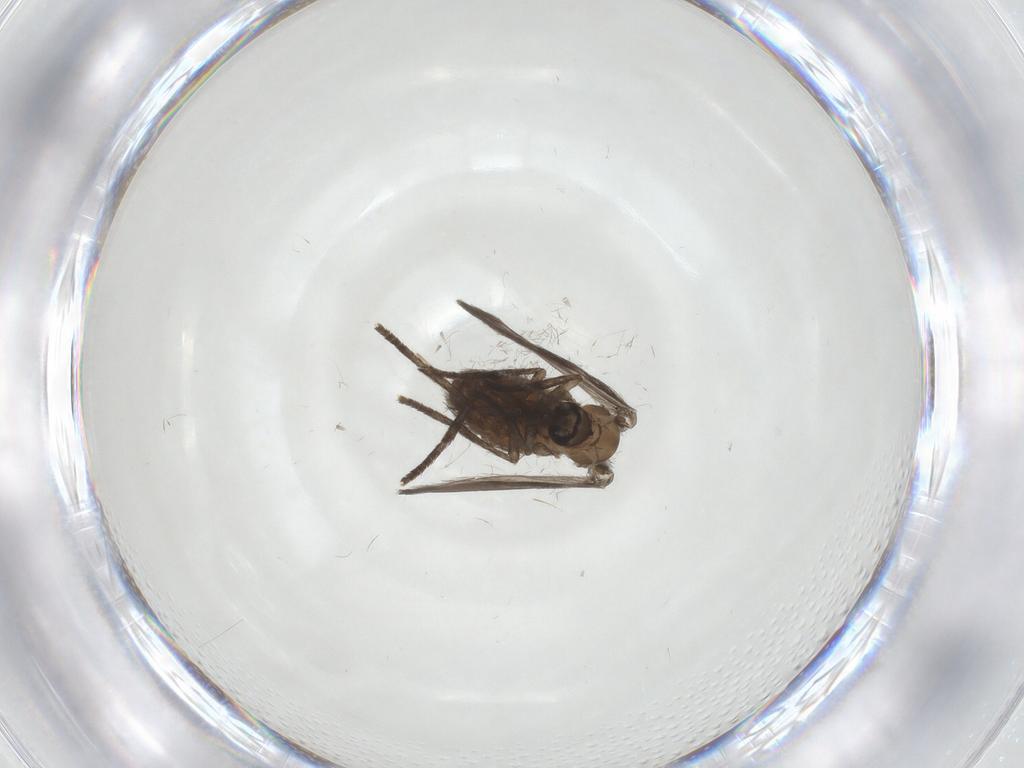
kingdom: Animalia
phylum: Arthropoda
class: Insecta
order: Diptera
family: Psychodidae
